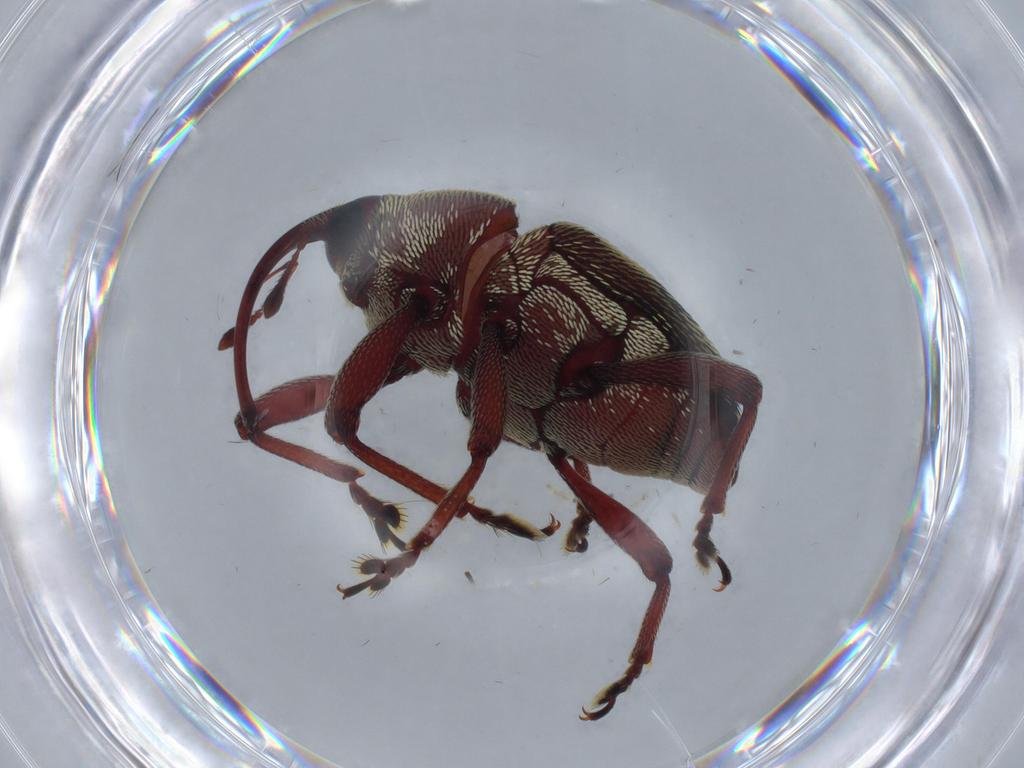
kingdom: Animalia
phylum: Arthropoda
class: Insecta
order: Coleoptera
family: Curculionidae
